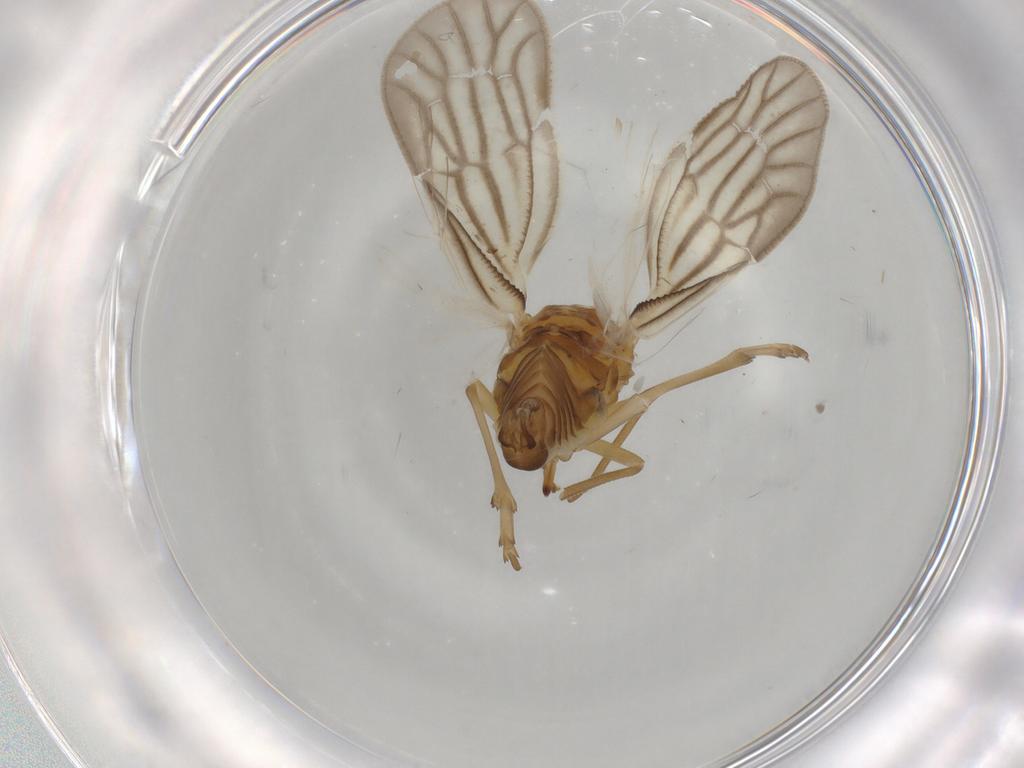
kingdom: Animalia
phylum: Arthropoda
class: Insecta
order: Hemiptera
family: Meenoplidae
